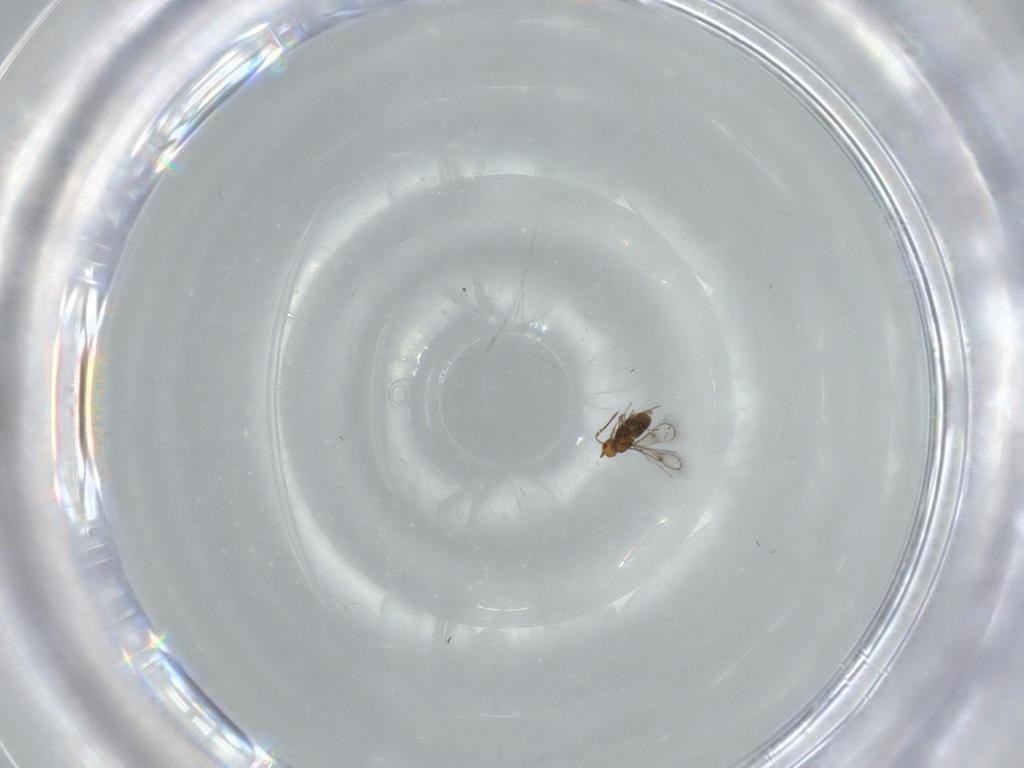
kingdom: Animalia
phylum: Arthropoda
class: Insecta
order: Hymenoptera
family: Trichogrammatidae
